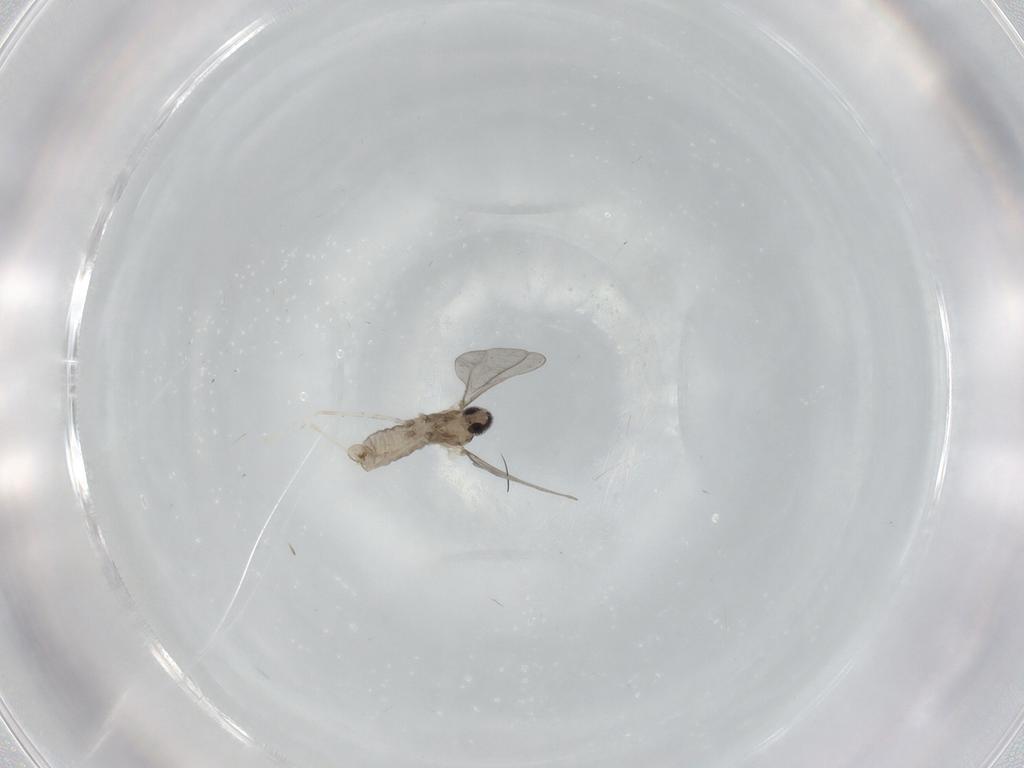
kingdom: Animalia
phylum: Arthropoda
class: Insecta
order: Diptera
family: Cecidomyiidae
